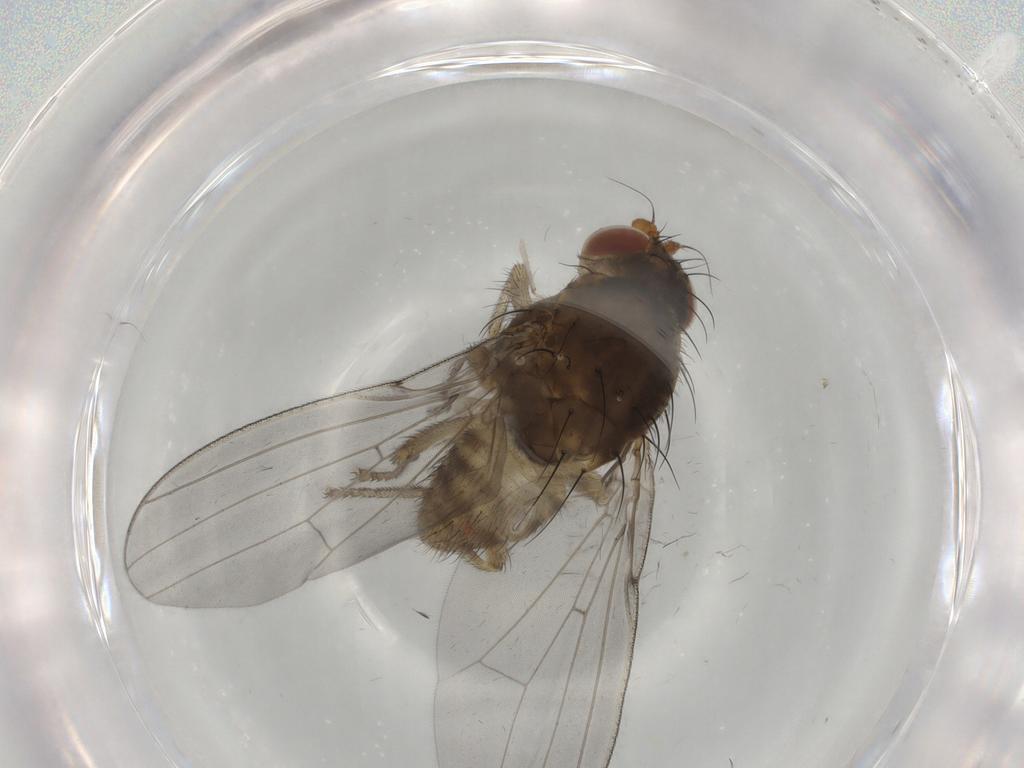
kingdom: Animalia
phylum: Arthropoda
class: Insecta
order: Diptera
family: Sciaridae
